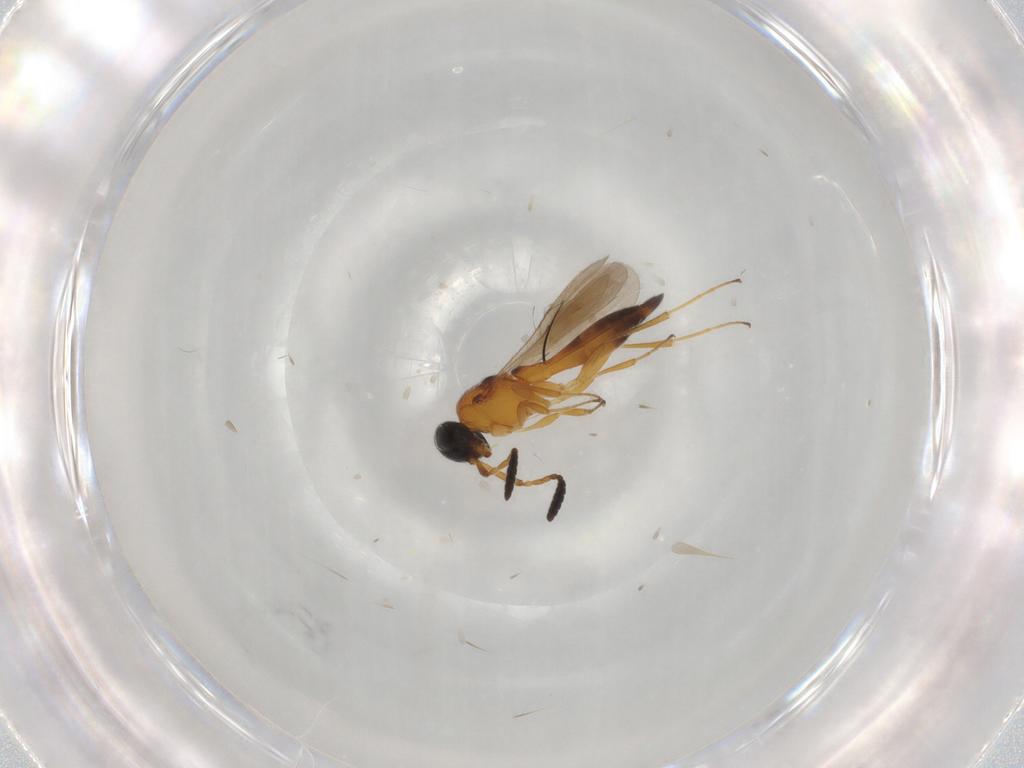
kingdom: Animalia
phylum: Arthropoda
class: Insecta
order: Hymenoptera
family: Scelionidae
